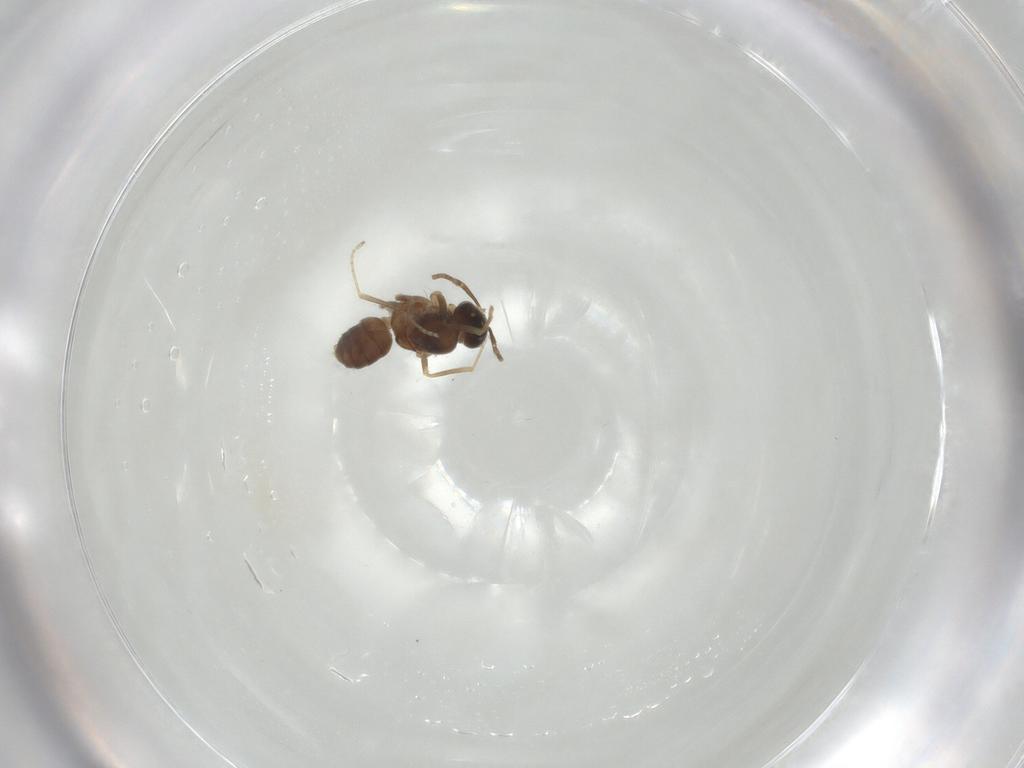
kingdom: Animalia
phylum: Arthropoda
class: Insecta
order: Hymenoptera
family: Formicidae
